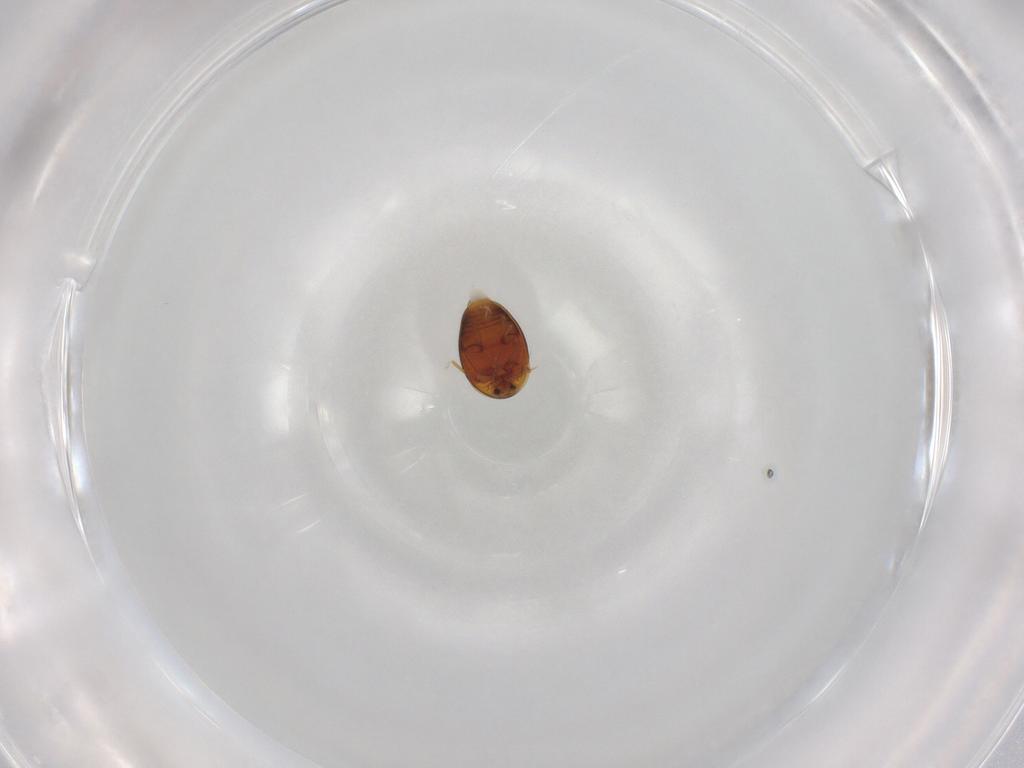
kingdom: Animalia
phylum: Arthropoda
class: Insecta
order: Coleoptera
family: Corylophidae
